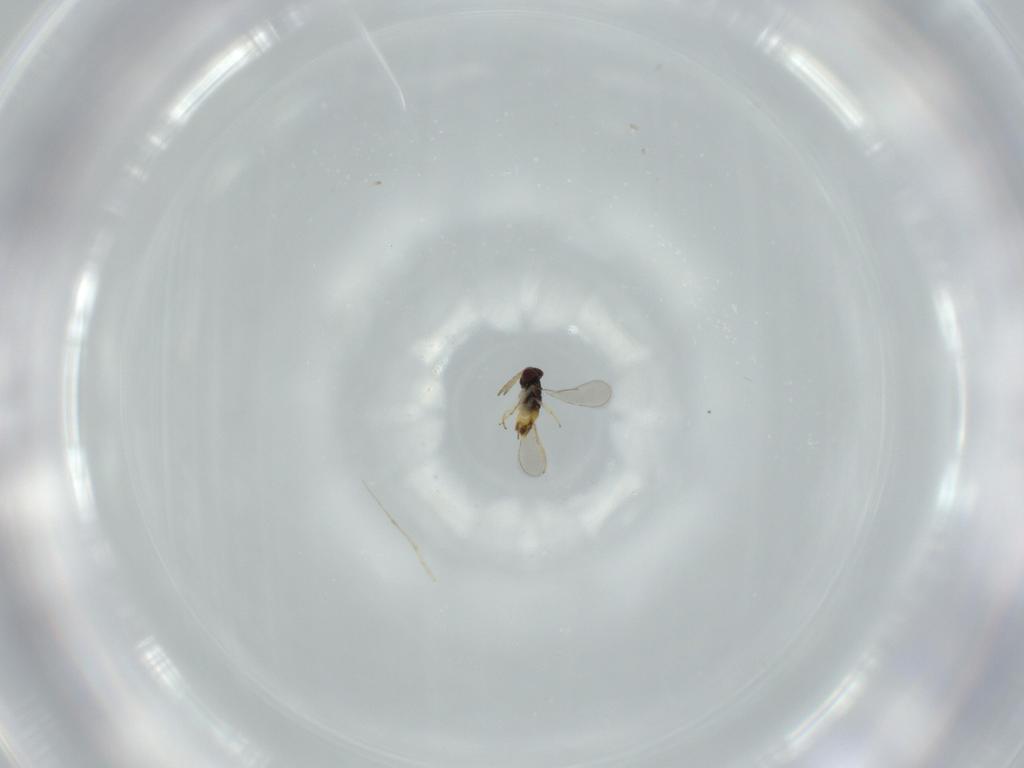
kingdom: Animalia
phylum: Arthropoda
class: Insecta
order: Hymenoptera
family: Aphelinidae
